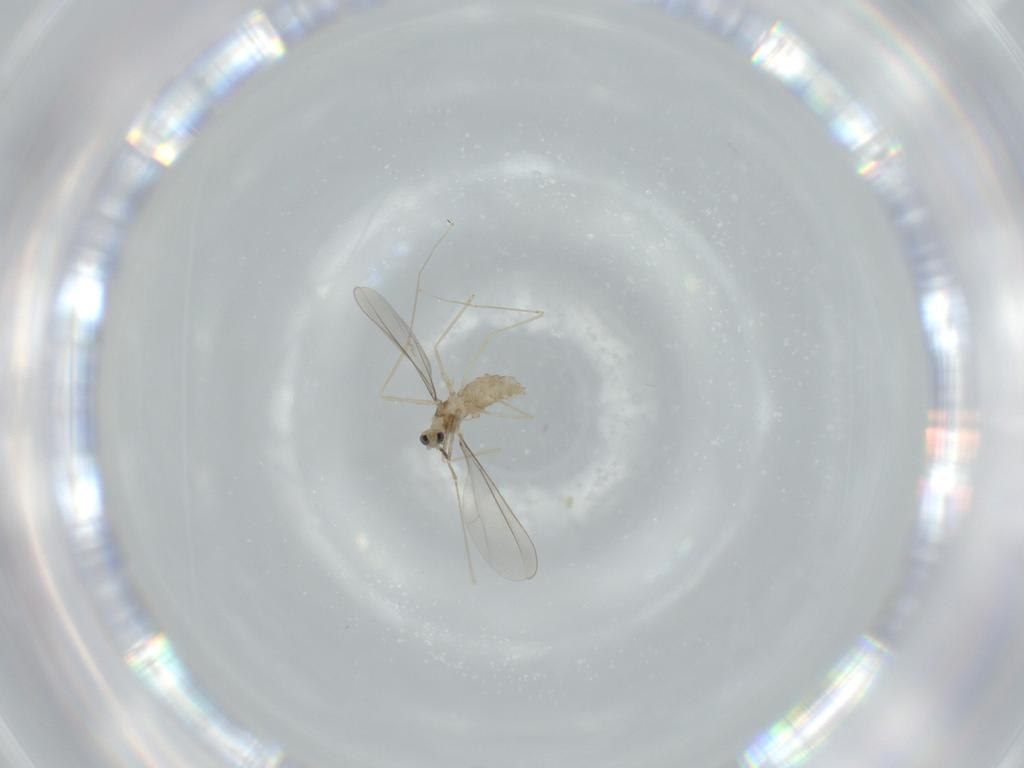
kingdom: Animalia
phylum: Arthropoda
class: Insecta
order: Diptera
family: Cecidomyiidae
